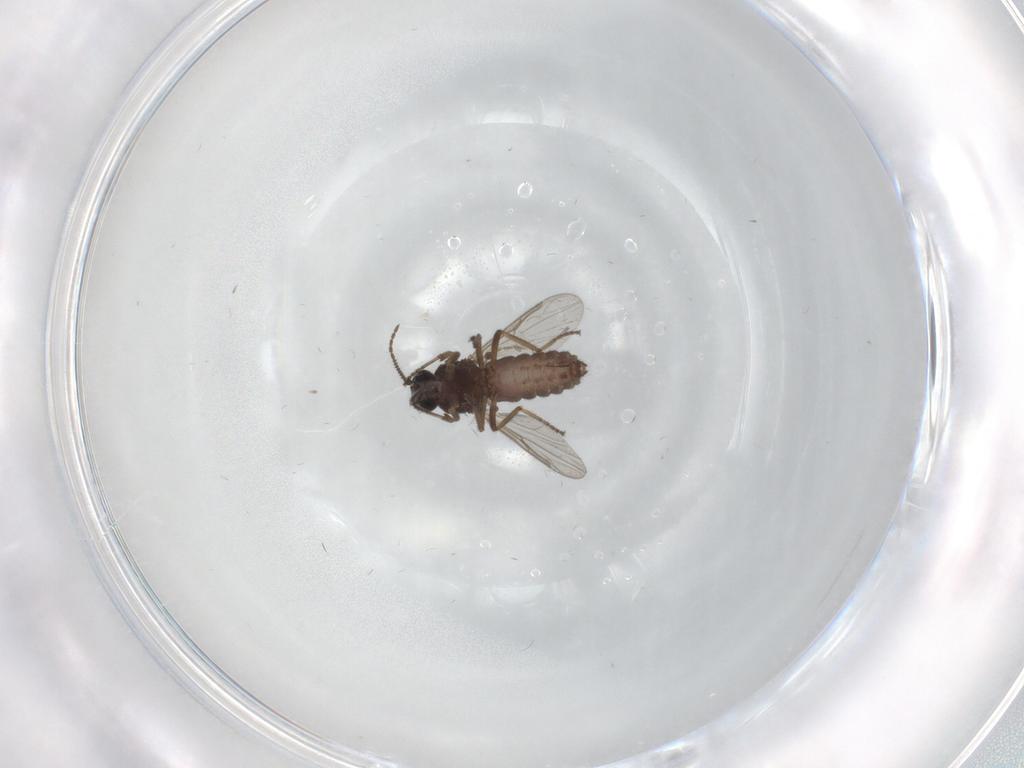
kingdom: Animalia
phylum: Arthropoda
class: Insecta
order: Diptera
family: Ceratopogonidae
